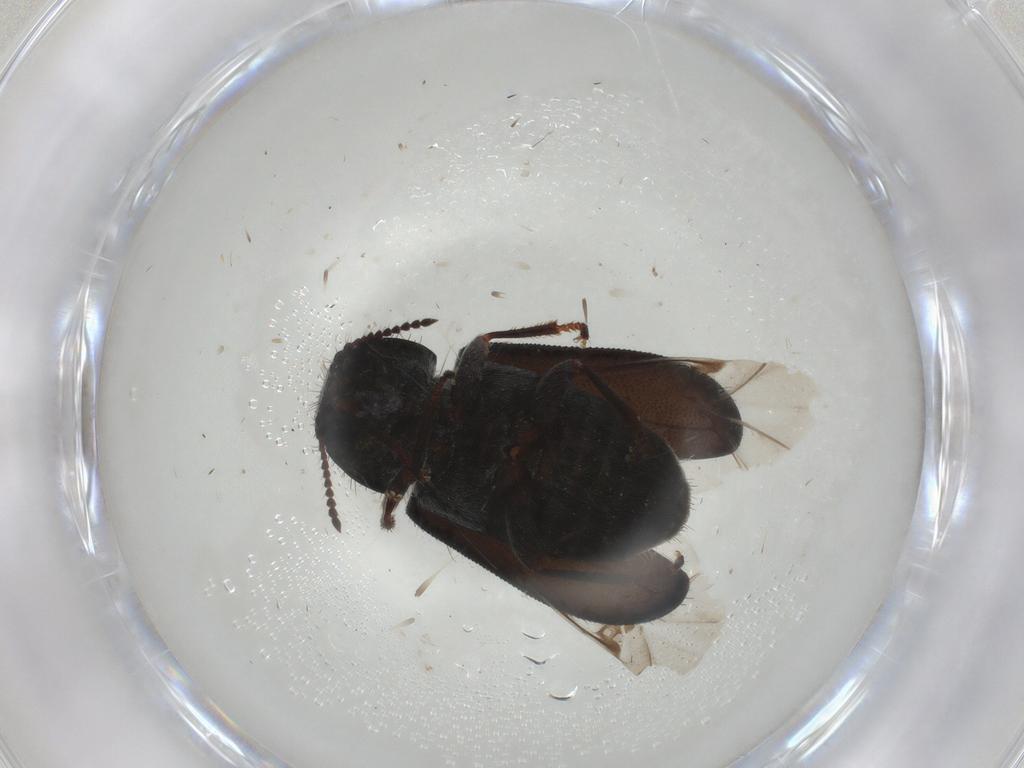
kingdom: Animalia
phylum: Arthropoda
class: Insecta
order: Coleoptera
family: Melyridae
